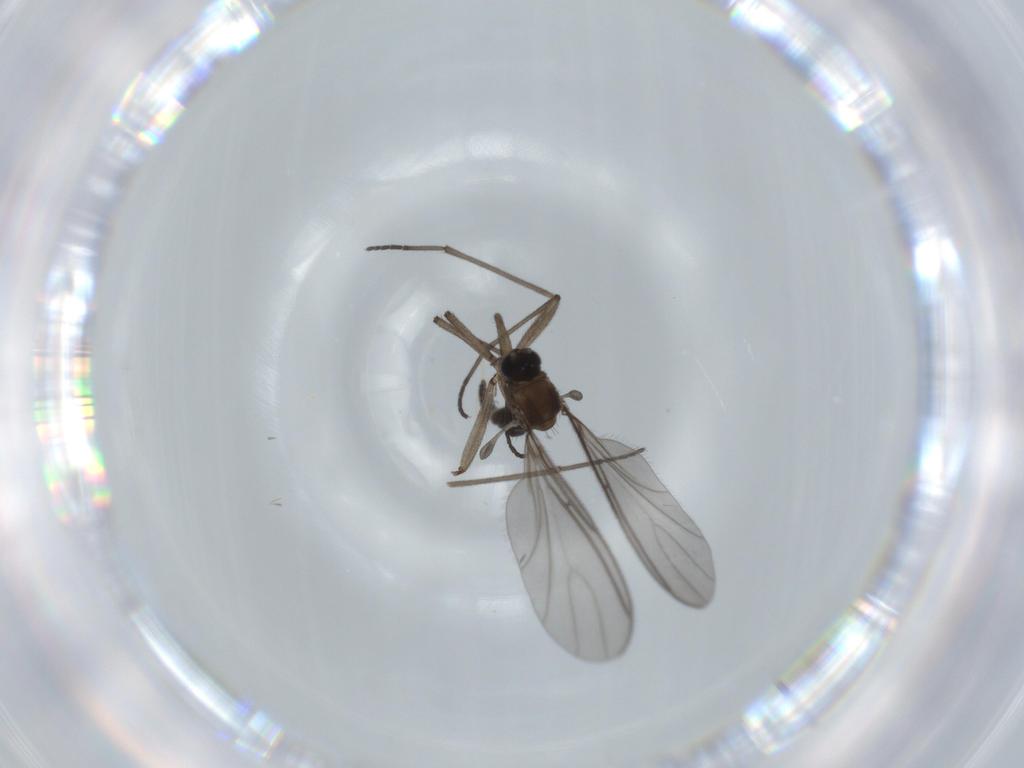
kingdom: Animalia
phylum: Arthropoda
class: Insecta
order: Diptera
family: Sciaridae
